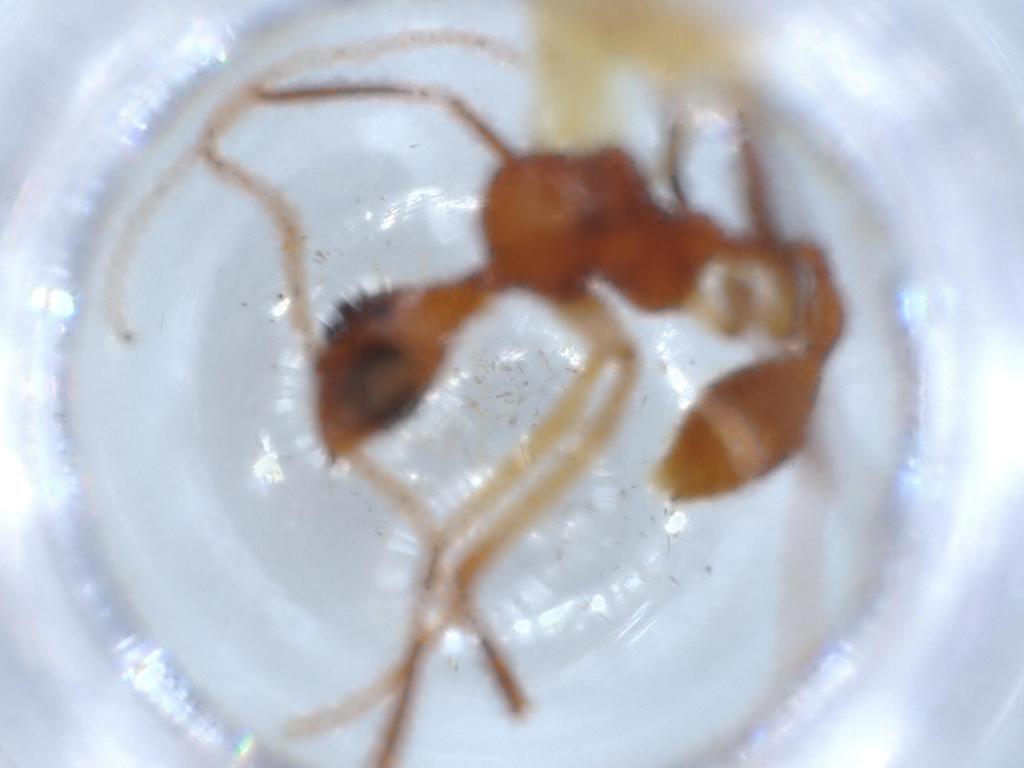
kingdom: Animalia
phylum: Arthropoda
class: Insecta
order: Hymenoptera
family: Formicidae
